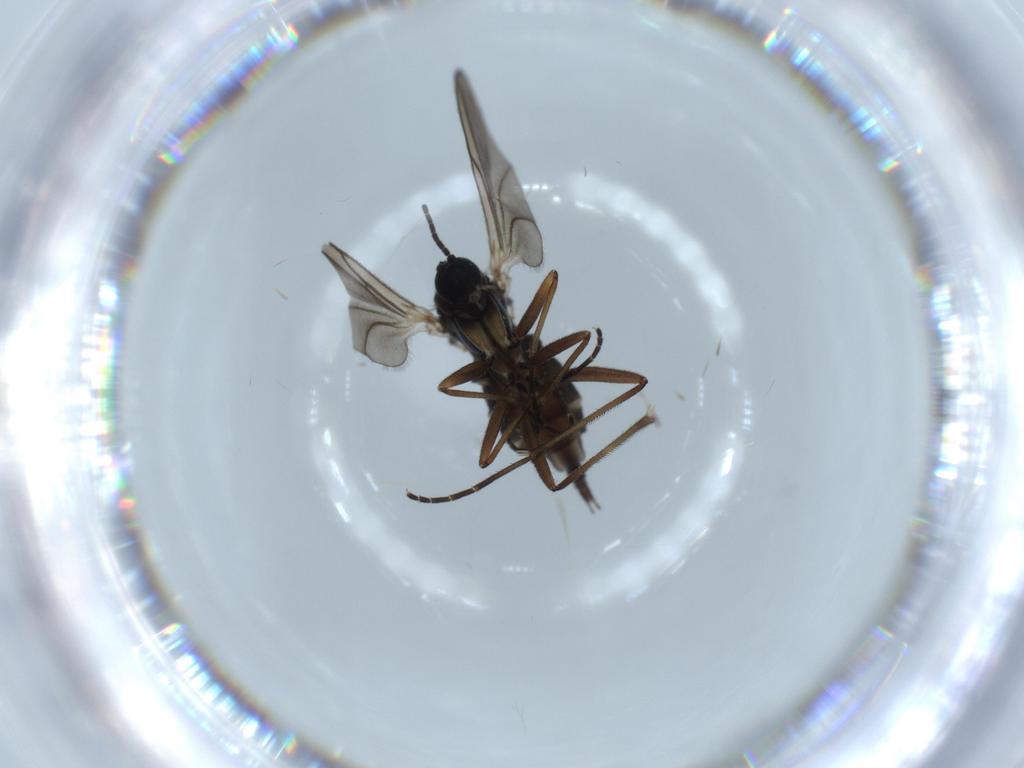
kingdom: Animalia
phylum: Arthropoda
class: Insecta
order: Diptera
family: Sciaridae
